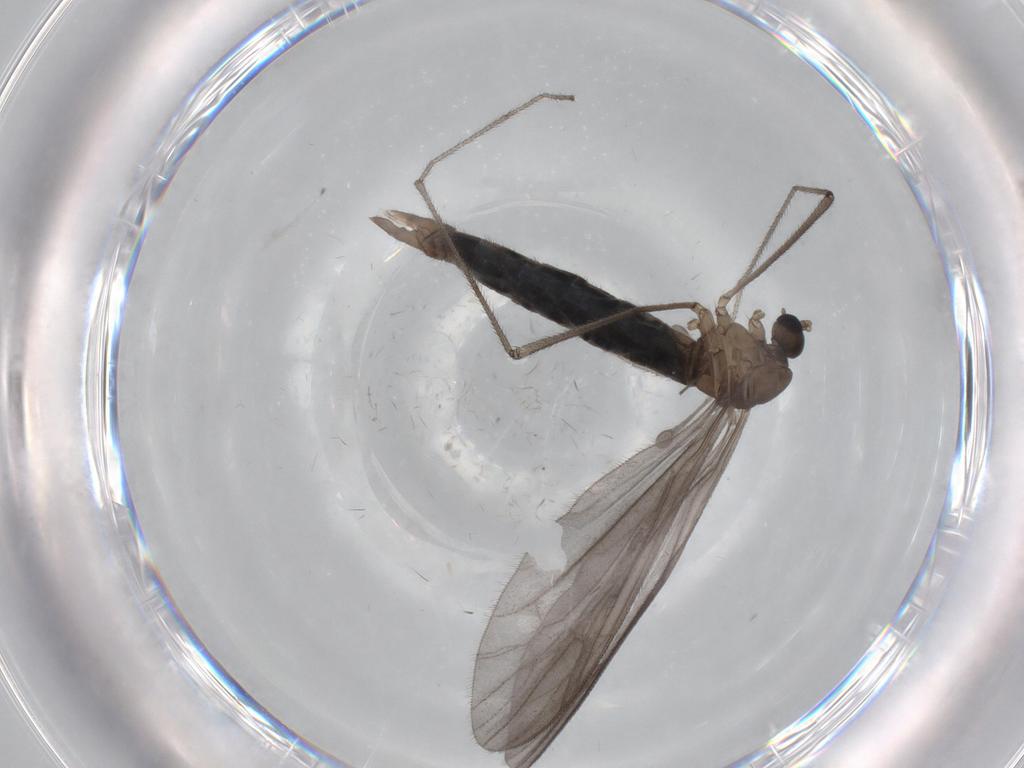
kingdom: Animalia
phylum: Arthropoda
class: Insecta
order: Diptera
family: Limoniidae
